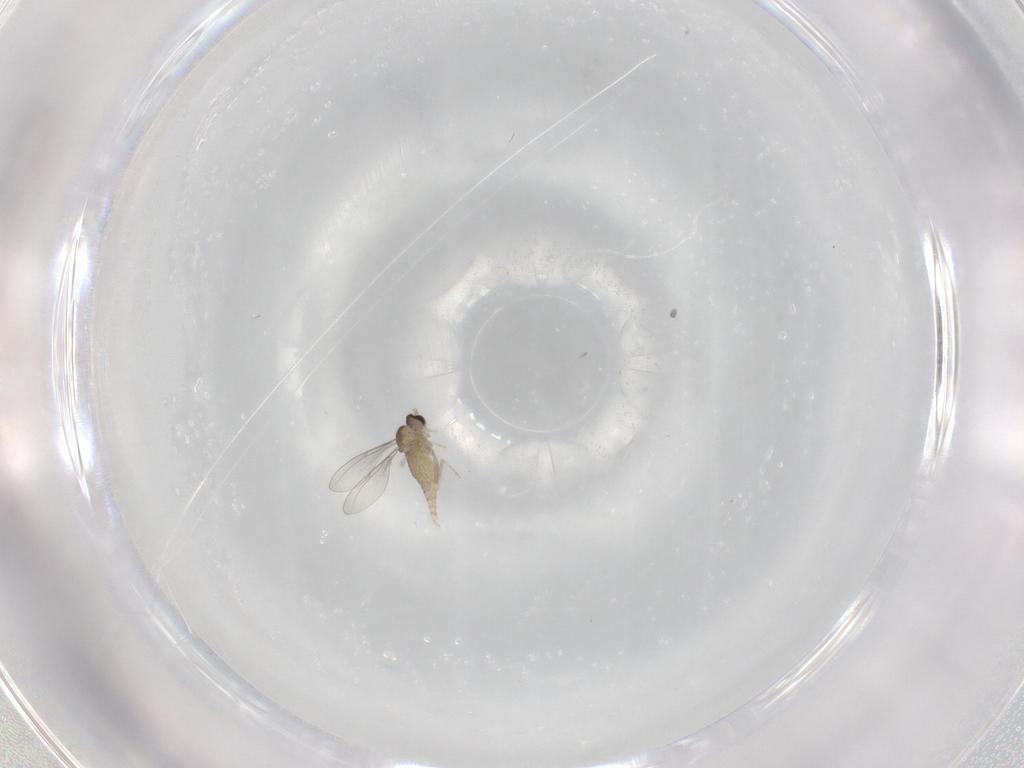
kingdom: Animalia
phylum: Arthropoda
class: Insecta
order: Diptera
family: Cecidomyiidae
